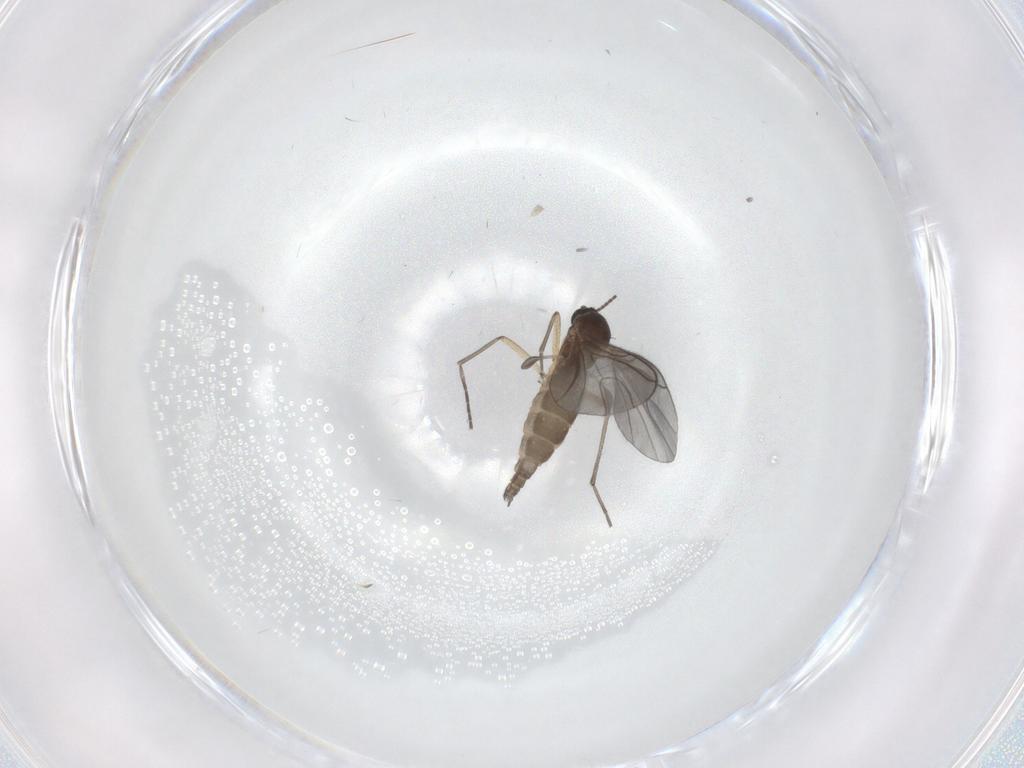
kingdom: Animalia
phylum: Arthropoda
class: Insecta
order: Diptera
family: Sciaridae
